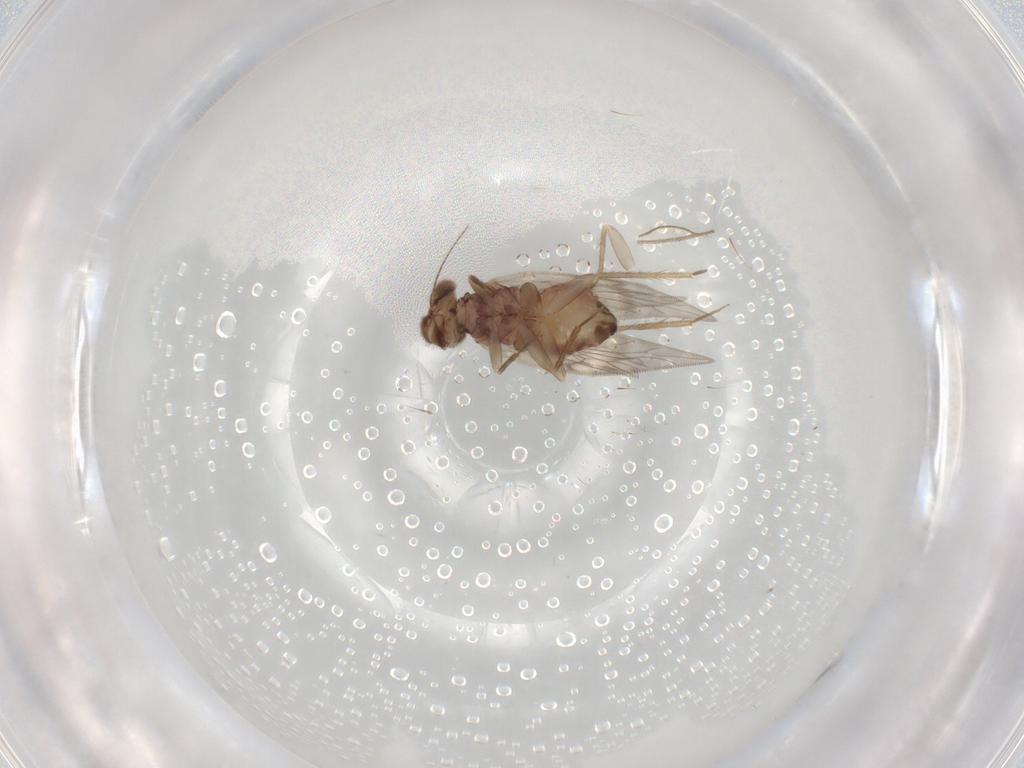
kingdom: Animalia
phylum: Arthropoda
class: Insecta
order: Psocodea
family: Lepidopsocidae
